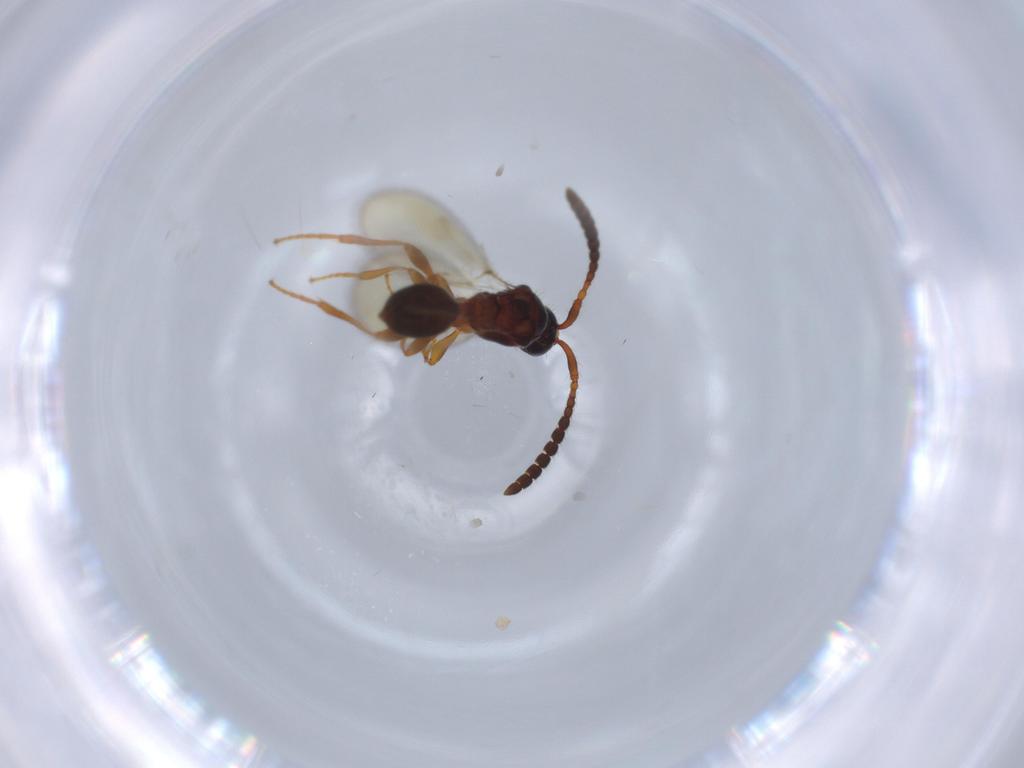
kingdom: Animalia
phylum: Arthropoda
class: Insecta
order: Hymenoptera
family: Diapriidae
